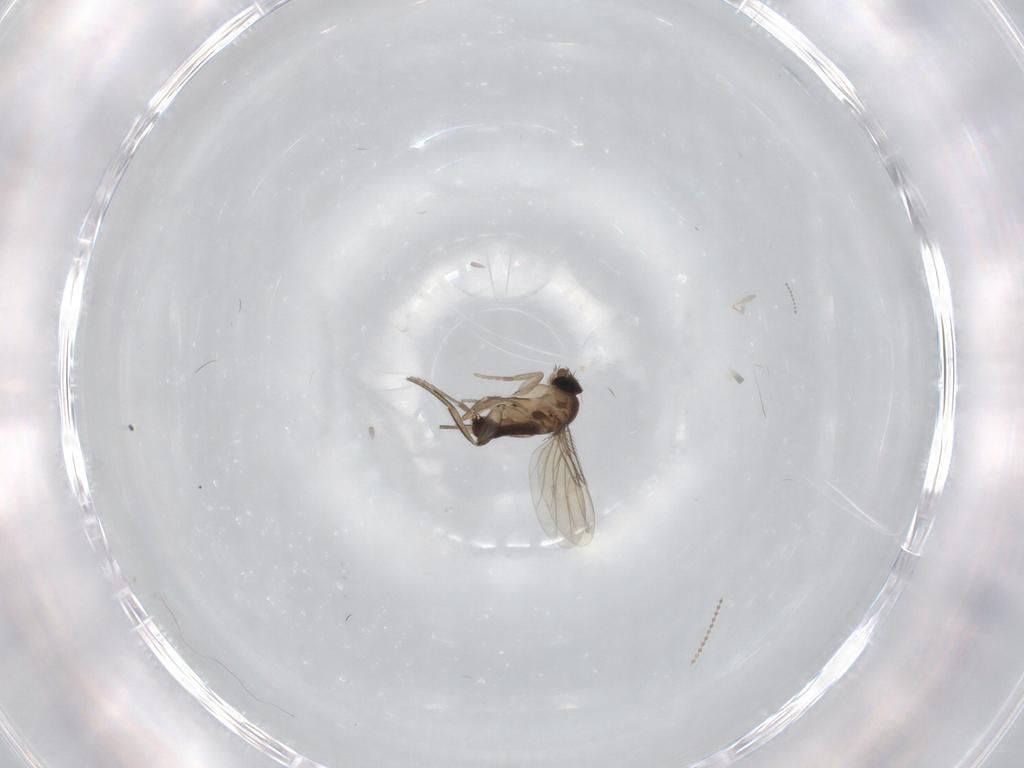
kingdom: Animalia
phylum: Arthropoda
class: Insecta
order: Diptera
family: Phoridae
